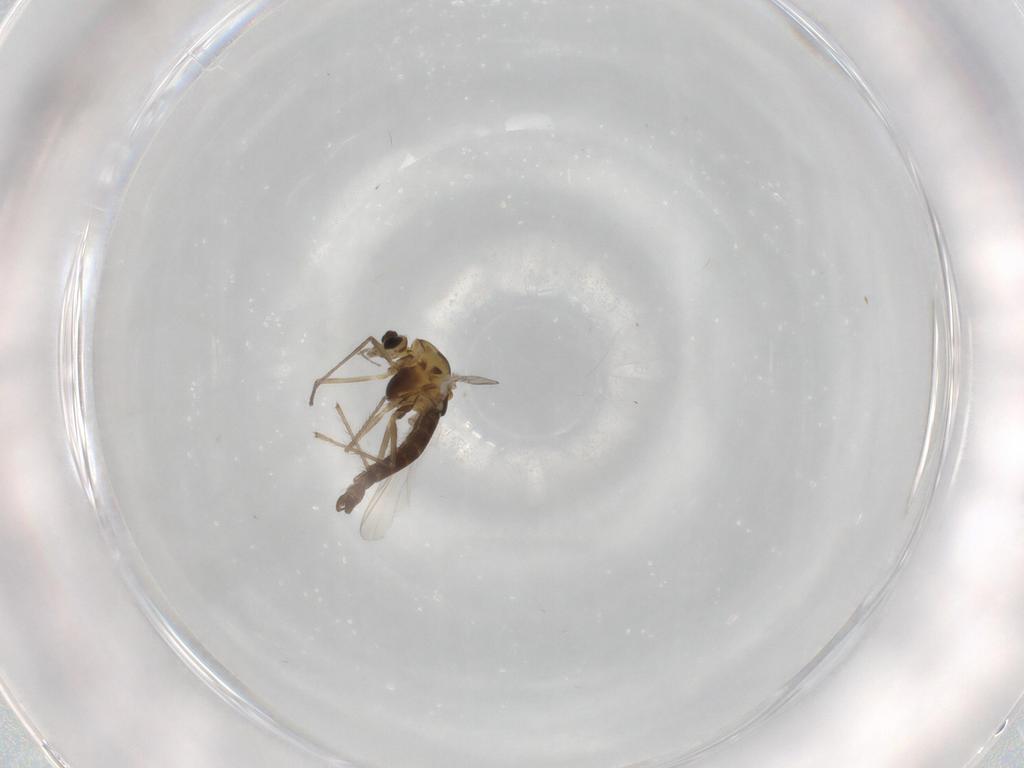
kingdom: Animalia
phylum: Arthropoda
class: Insecta
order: Diptera
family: Chironomidae
